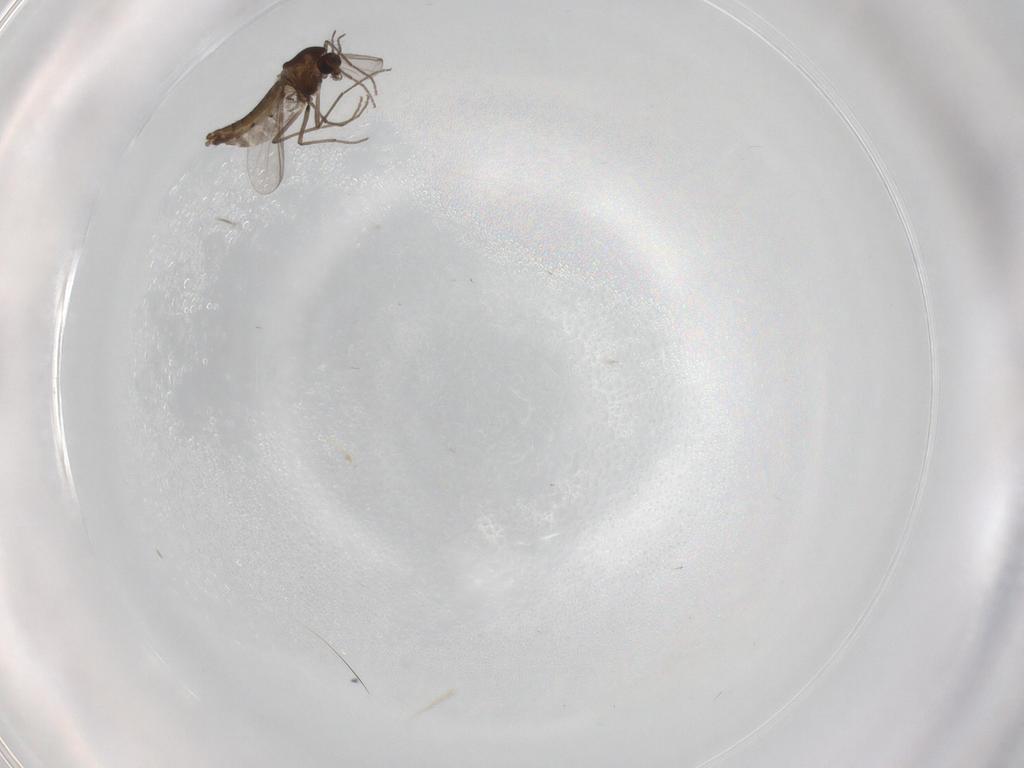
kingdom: Animalia
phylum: Arthropoda
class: Insecta
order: Diptera
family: Chironomidae
